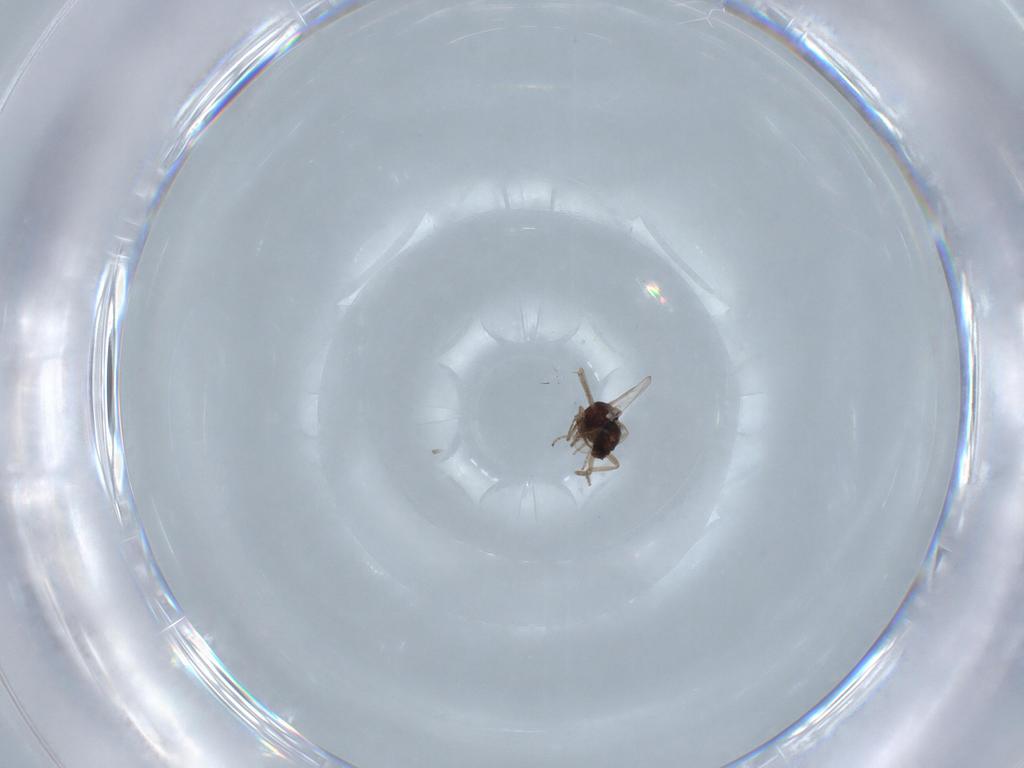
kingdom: Animalia
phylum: Arthropoda
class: Insecta
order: Diptera
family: Ceratopogonidae
